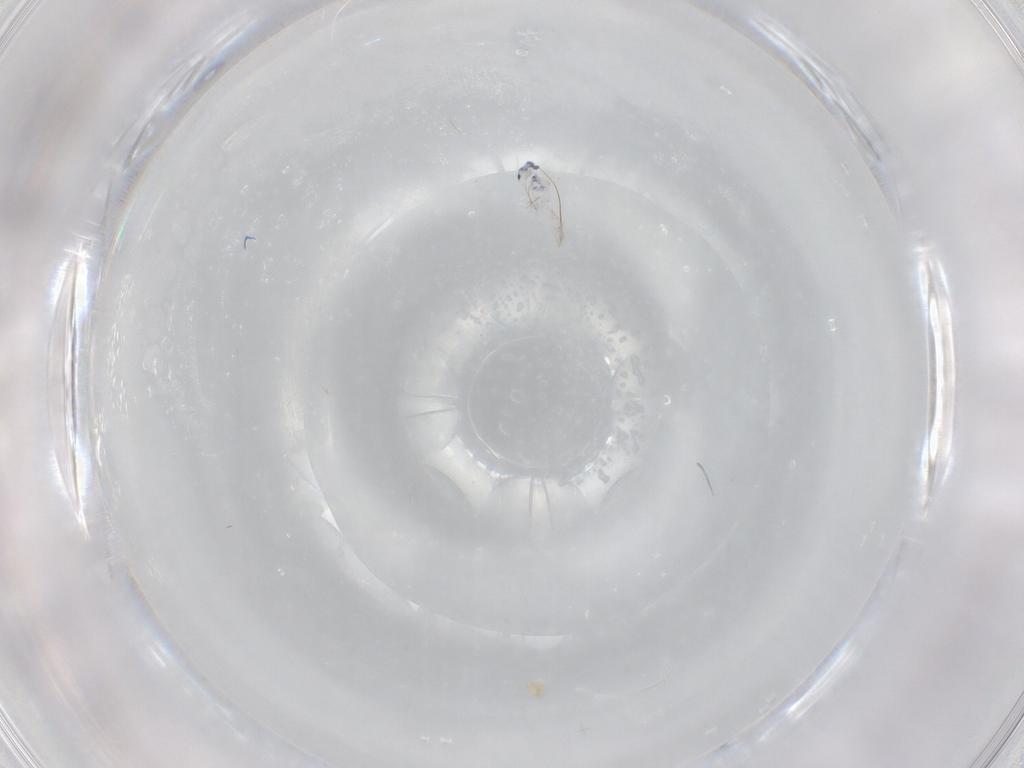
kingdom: Animalia
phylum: Arthropoda
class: Collembola
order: Entomobryomorpha
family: Entomobryidae
